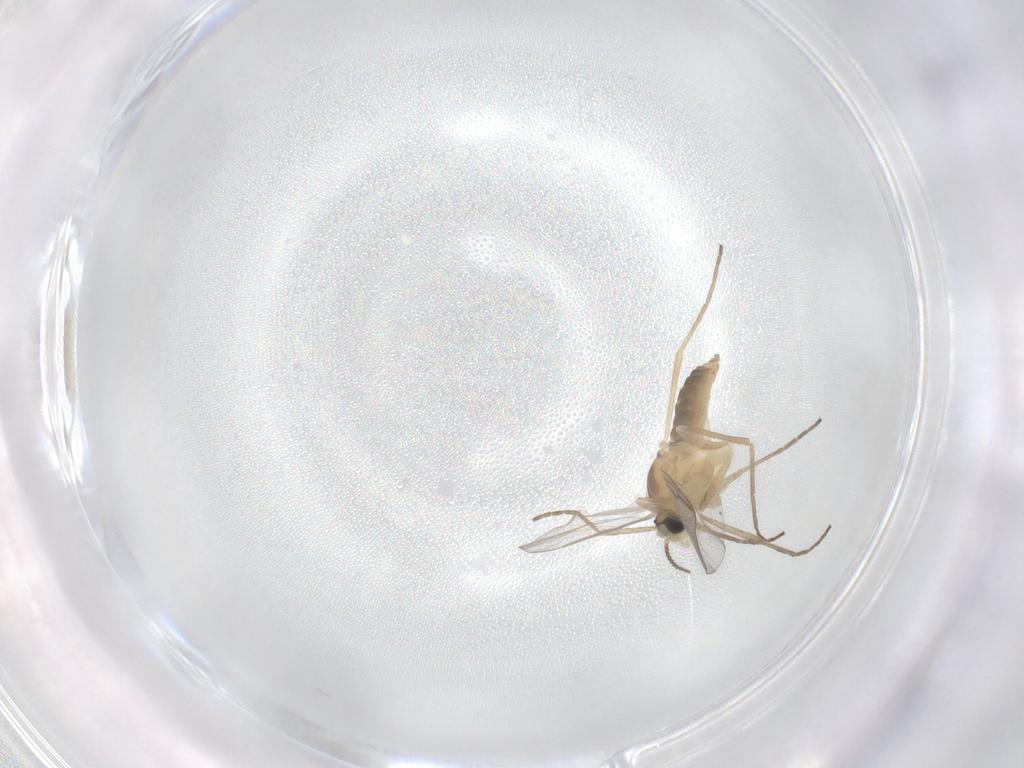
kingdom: Animalia
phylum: Arthropoda
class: Insecta
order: Diptera
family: Cecidomyiidae
